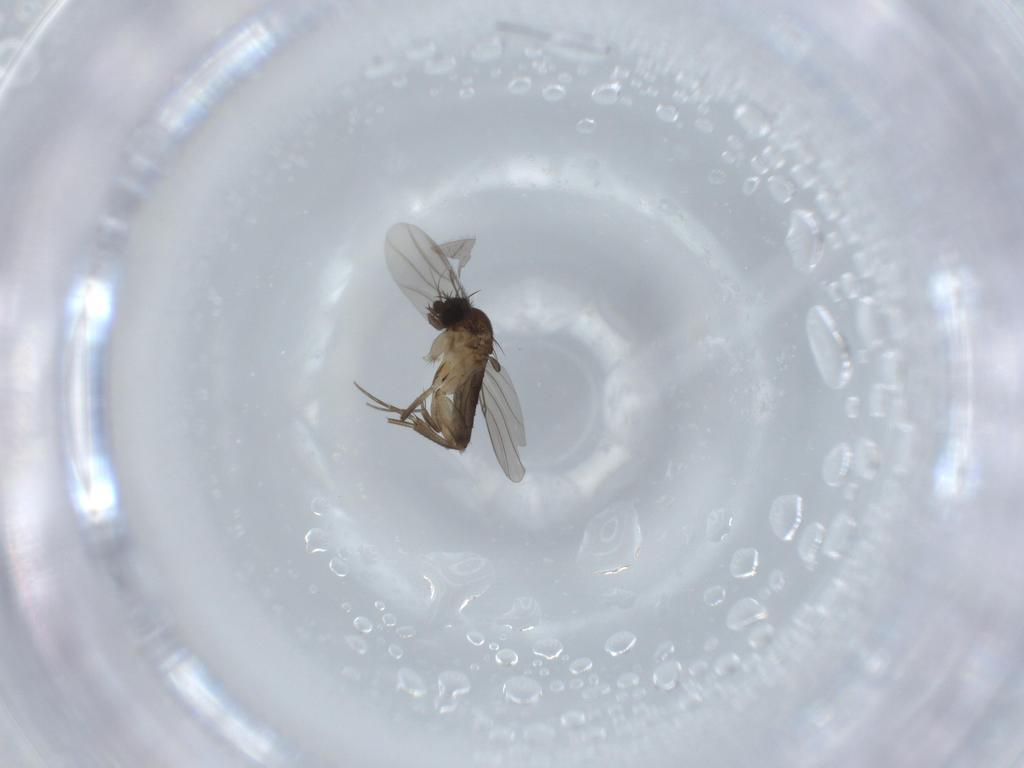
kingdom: Animalia
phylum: Arthropoda
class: Insecta
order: Diptera
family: Phoridae
